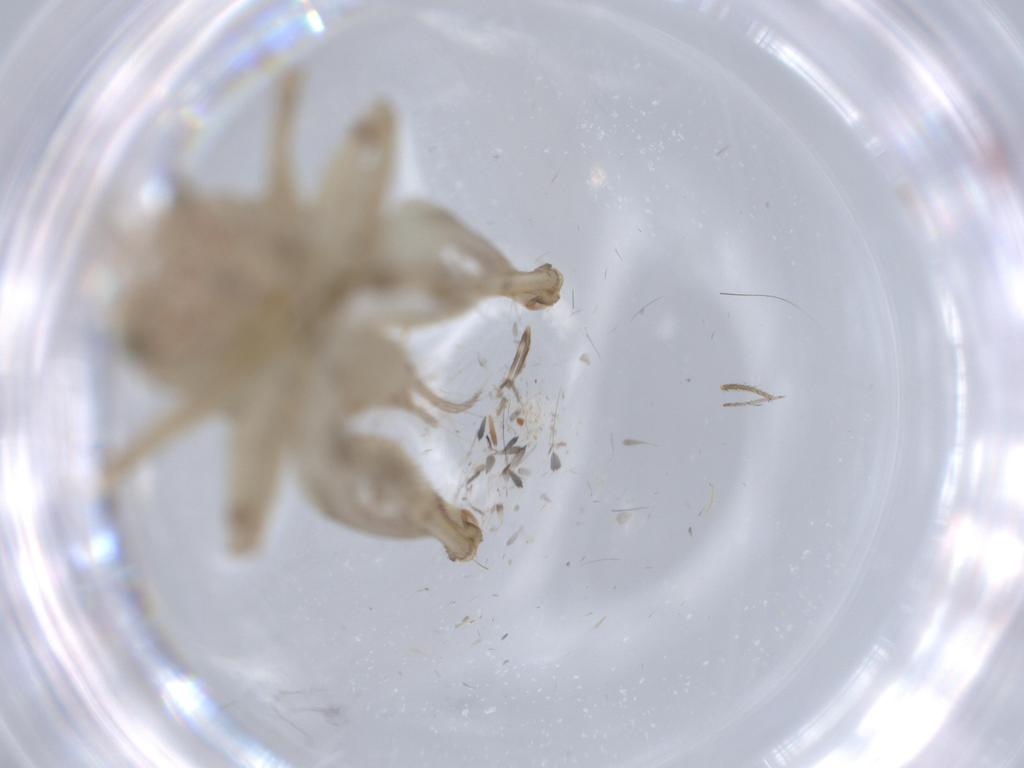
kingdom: Animalia
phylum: Arthropoda
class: Insecta
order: Orthoptera
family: Trigonidiidae
